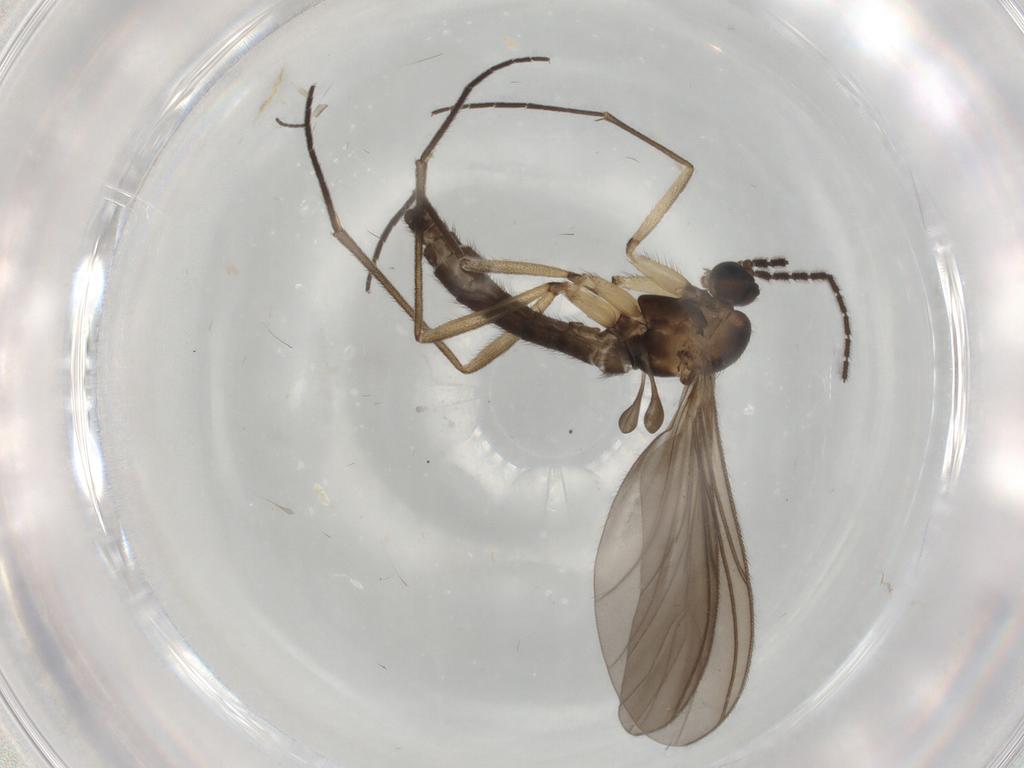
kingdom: Animalia
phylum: Arthropoda
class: Insecta
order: Diptera
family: Sciaridae
